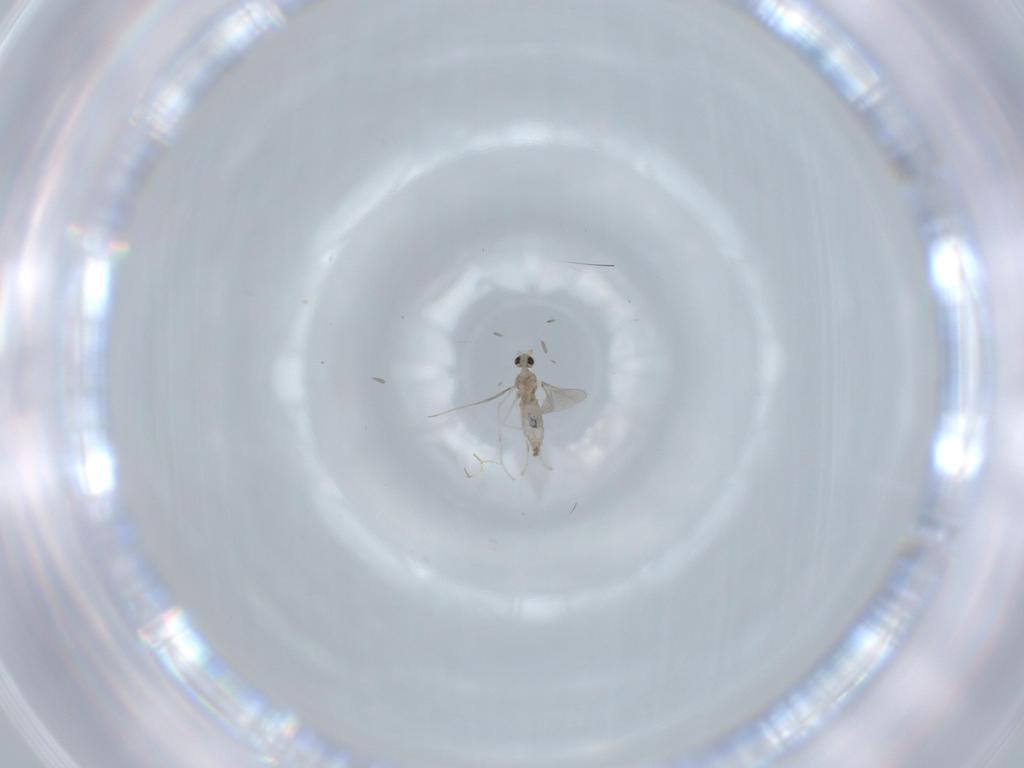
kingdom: Animalia
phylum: Arthropoda
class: Insecta
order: Diptera
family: Cecidomyiidae
